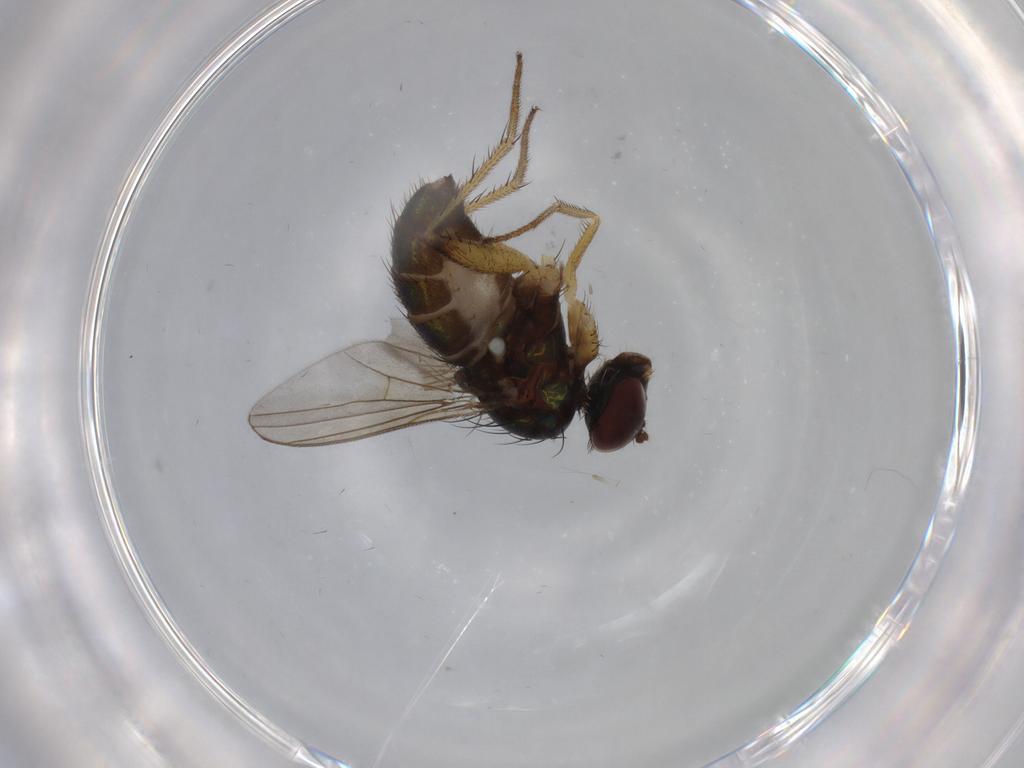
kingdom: Animalia
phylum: Arthropoda
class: Insecta
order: Diptera
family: Dolichopodidae
